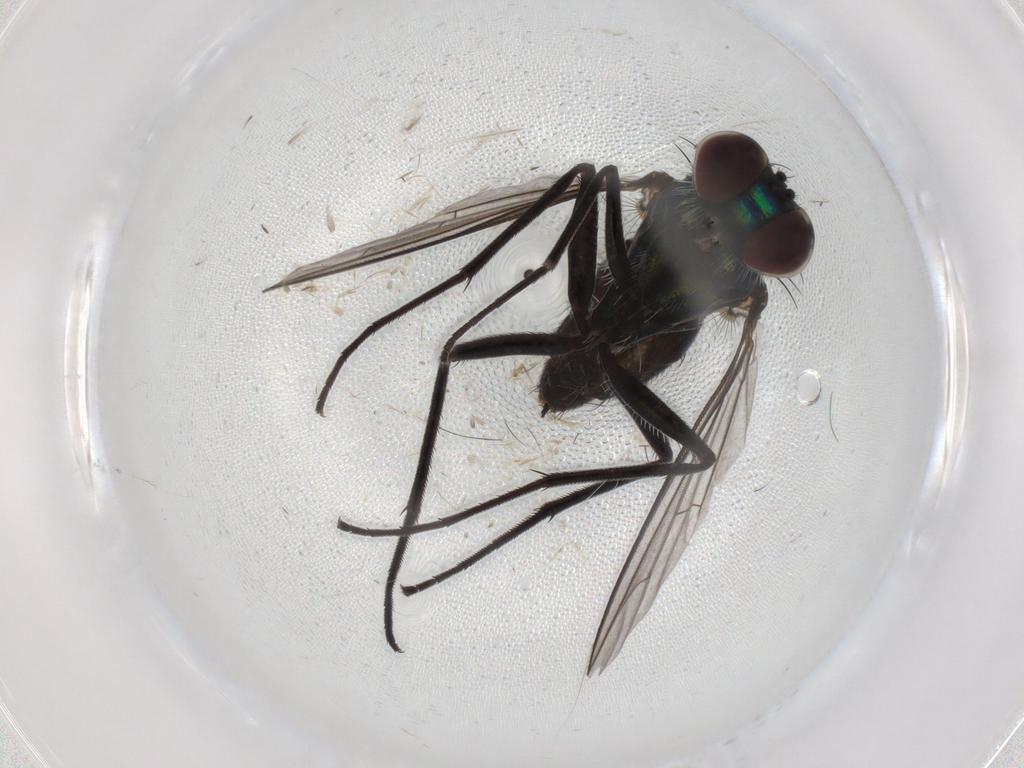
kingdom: Animalia
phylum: Arthropoda
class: Insecta
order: Diptera
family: Dolichopodidae
